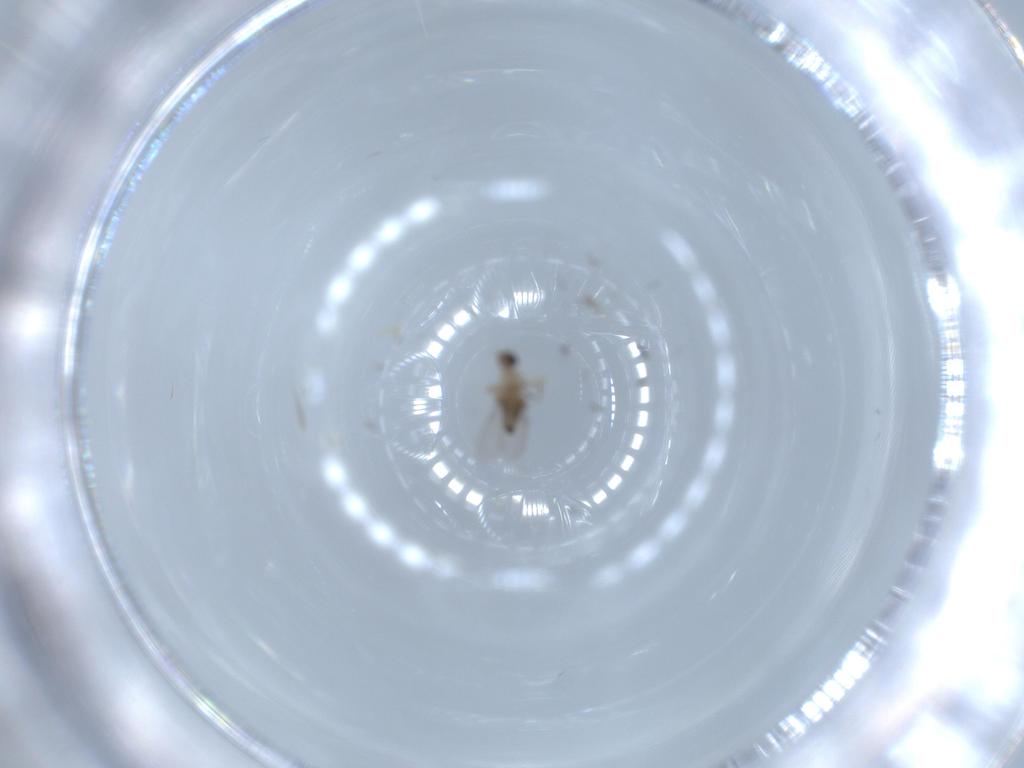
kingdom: Animalia
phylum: Arthropoda
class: Insecta
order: Diptera
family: Phoridae
